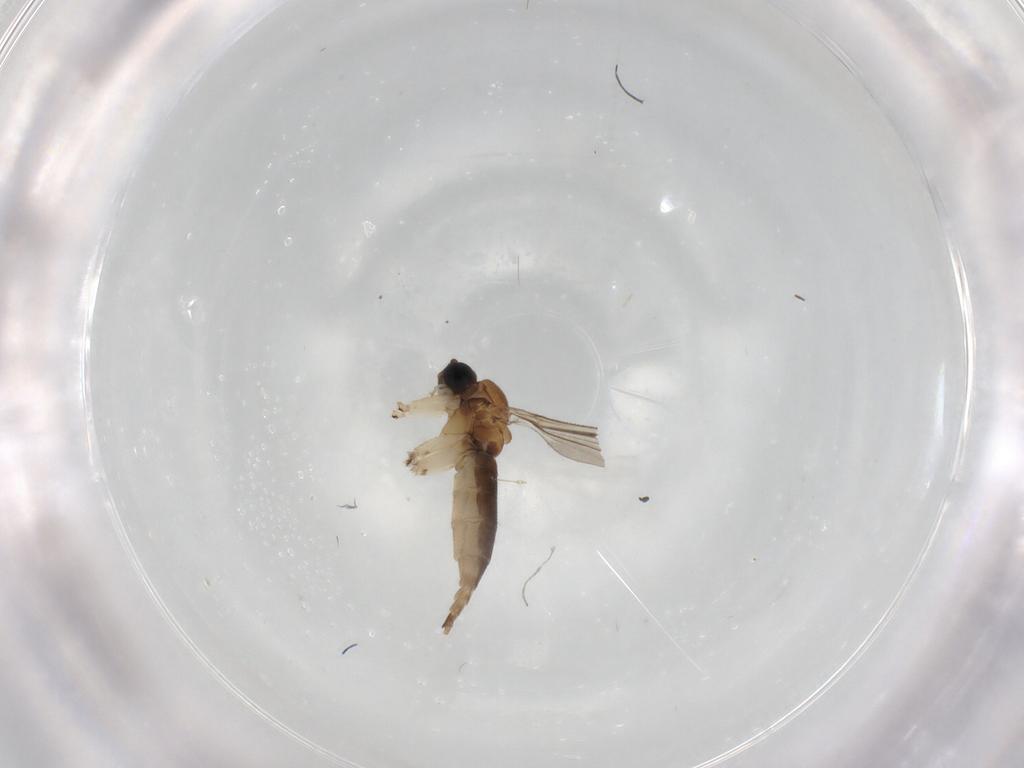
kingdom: Animalia
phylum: Arthropoda
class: Insecta
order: Diptera
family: Sciaridae
